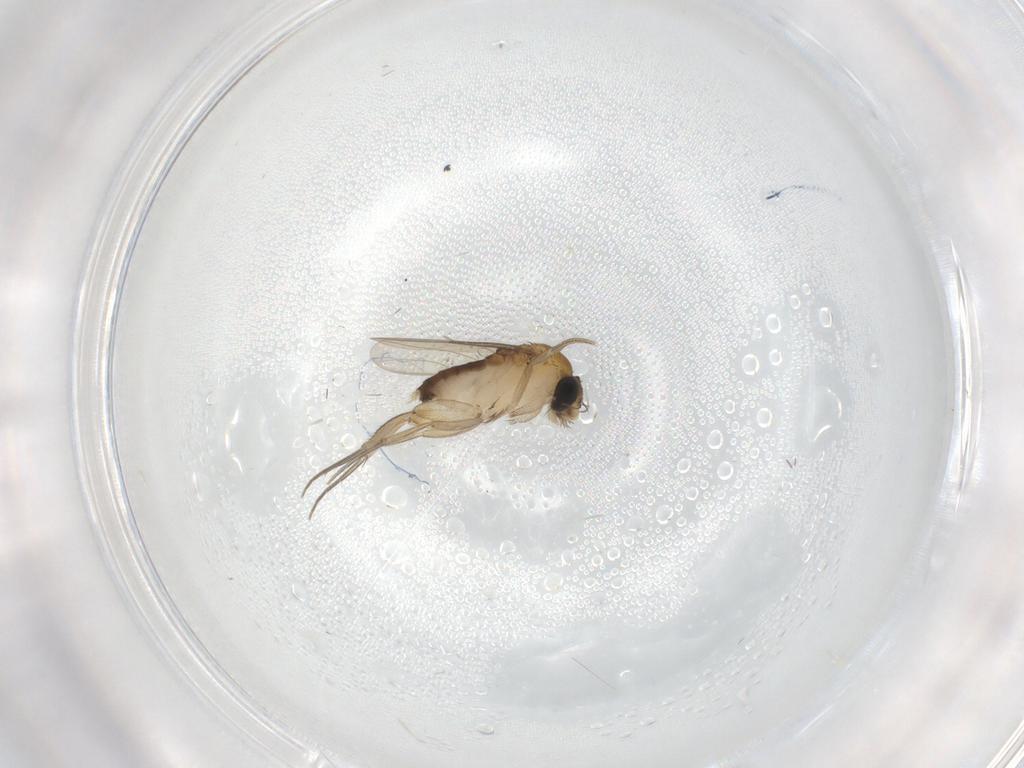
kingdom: Animalia
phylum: Arthropoda
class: Insecta
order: Diptera
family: Phoridae
